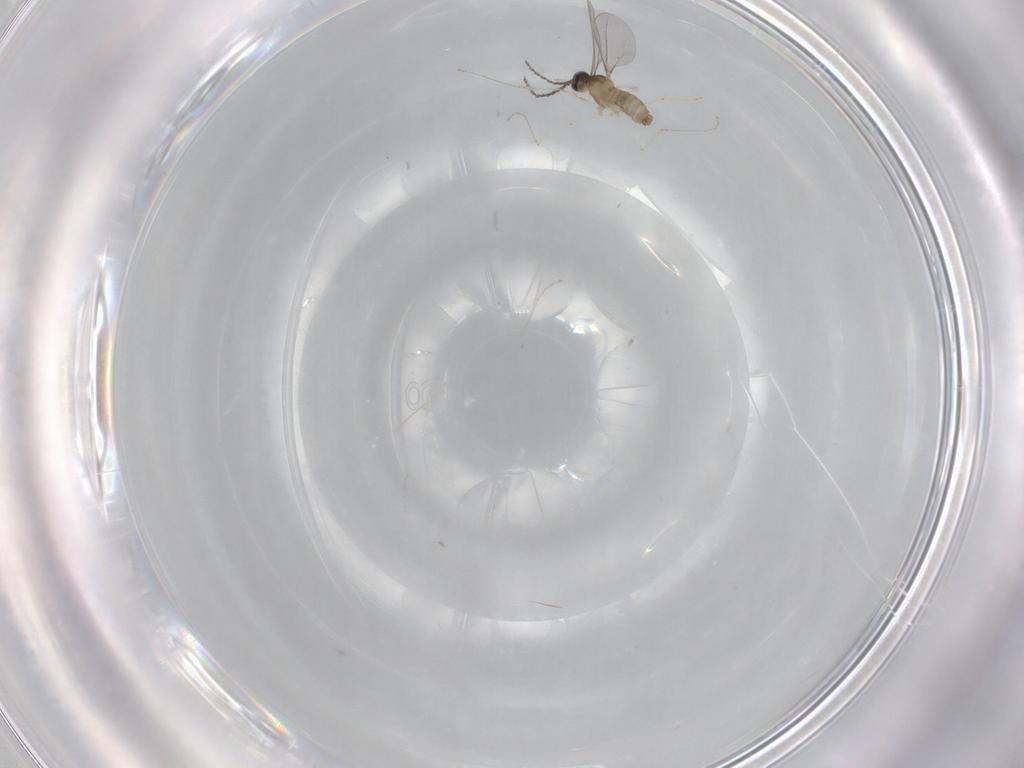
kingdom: Animalia
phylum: Arthropoda
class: Insecta
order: Diptera
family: Cecidomyiidae
